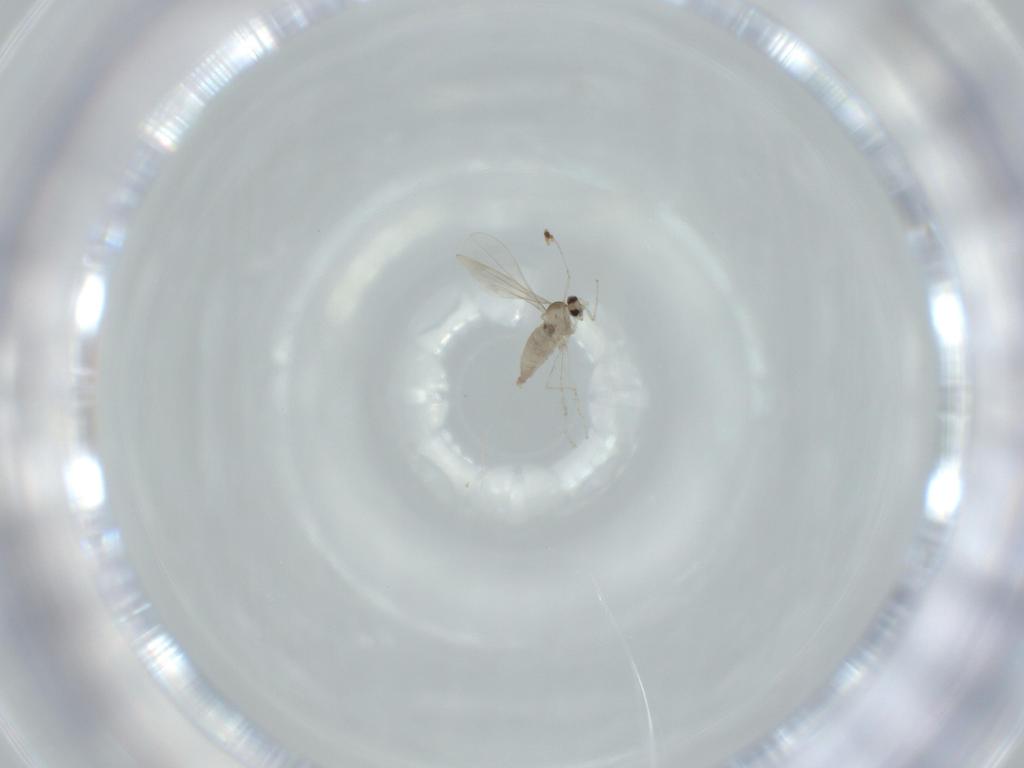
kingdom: Animalia
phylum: Arthropoda
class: Insecta
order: Diptera
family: Cecidomyiidae
